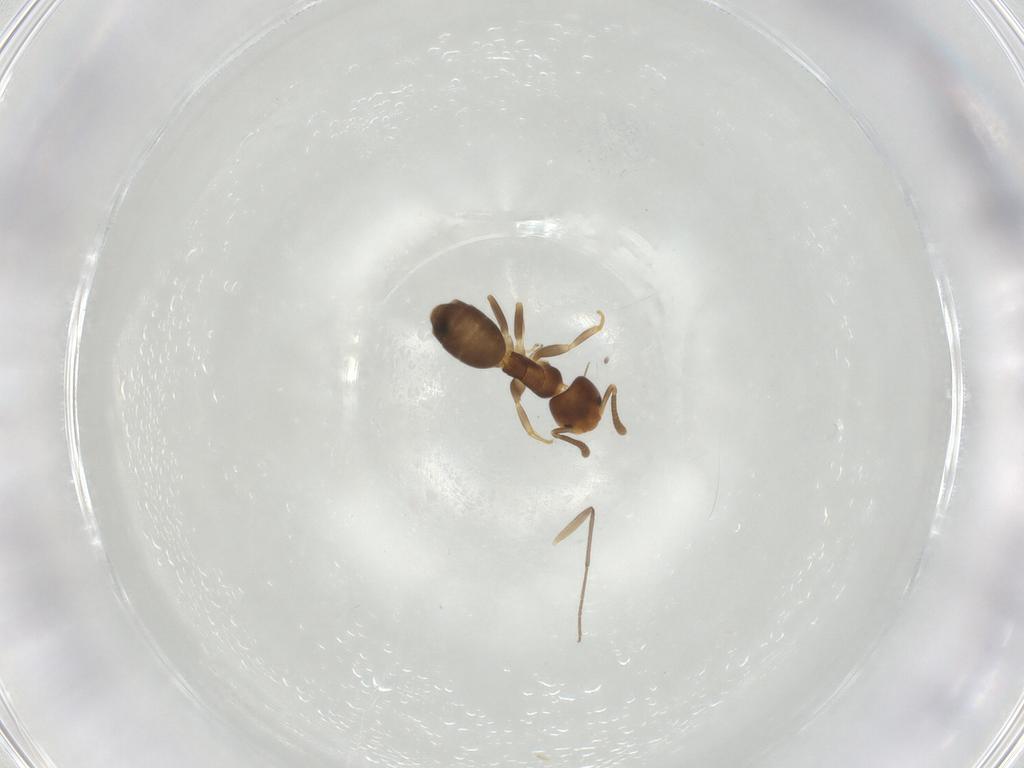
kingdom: Animalia
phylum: Arthropoda
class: Insecta
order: Hymenoptera
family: Formicidae
